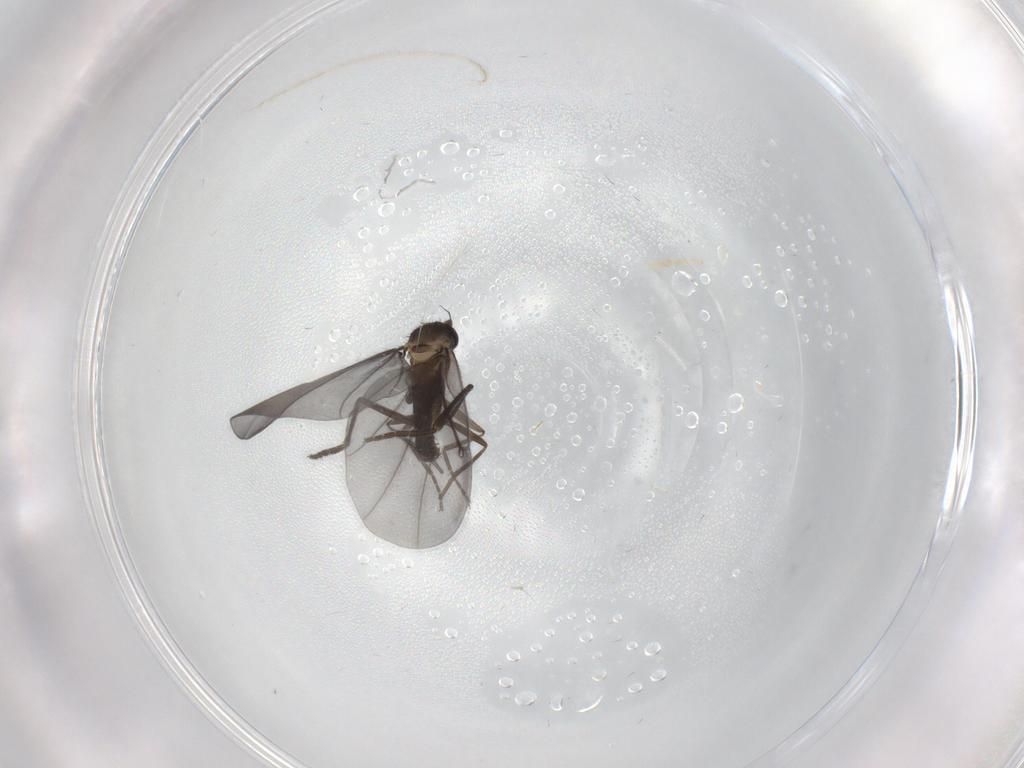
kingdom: Animalia
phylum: Arthropoda
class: Insecta
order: Diptera
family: Phoridae
